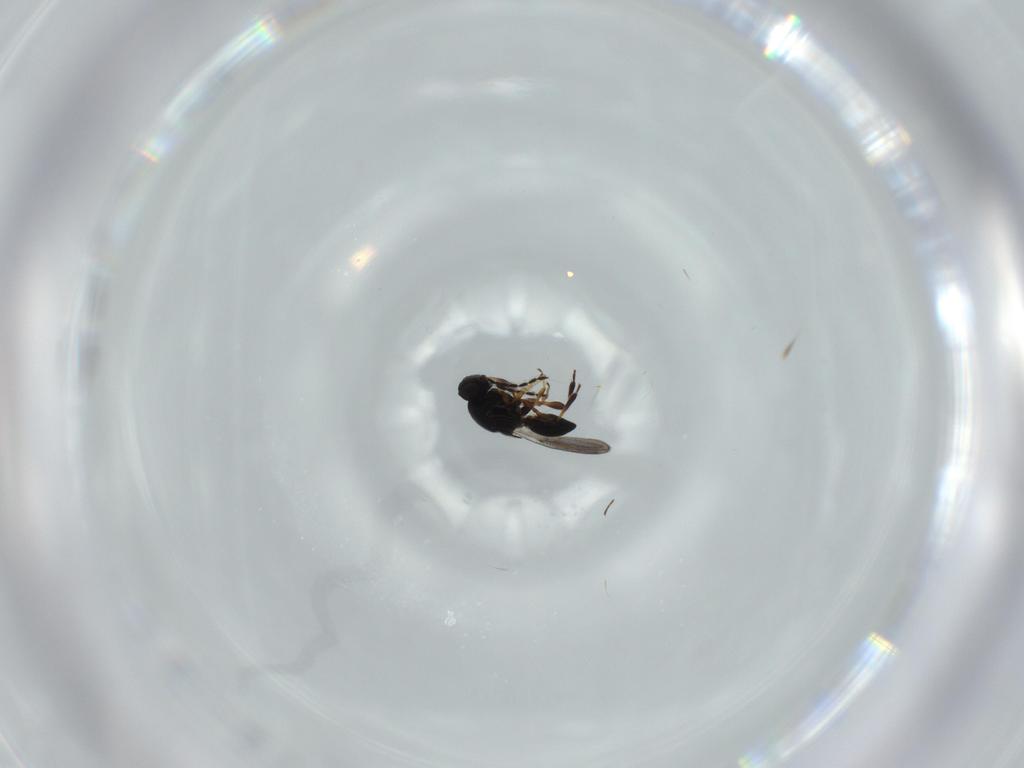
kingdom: Animalia
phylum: Arthropoda
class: Insecta
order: Hymenoptera
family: Platygastridae
